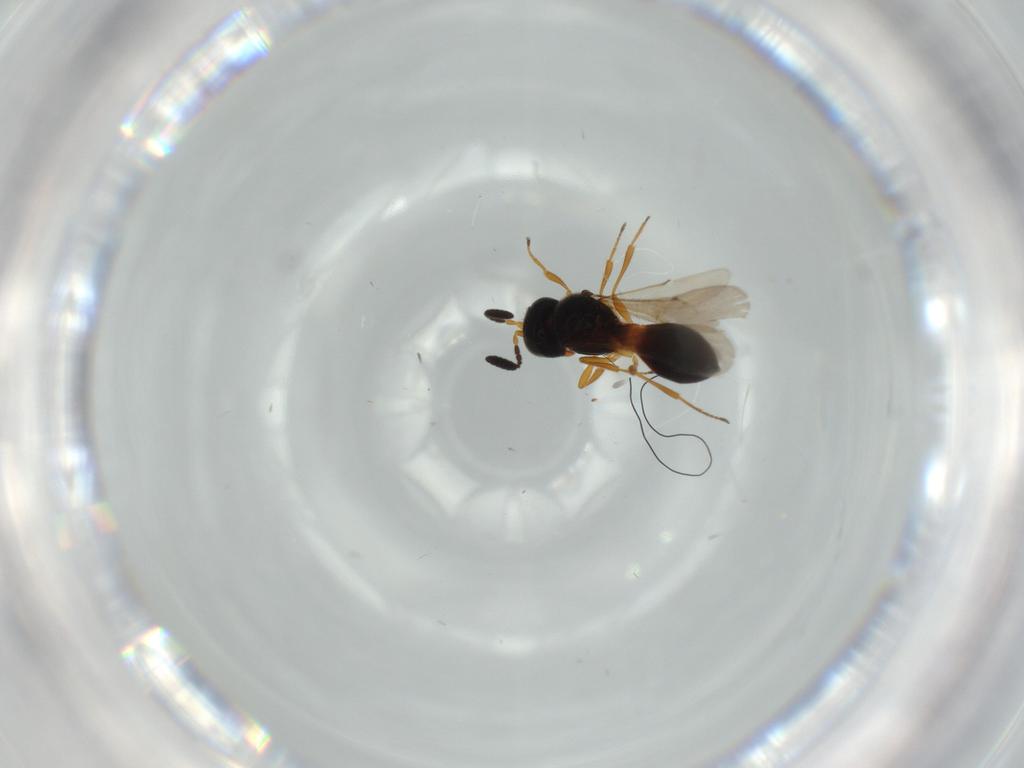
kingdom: Animalia
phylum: Arthropoda
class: Insecta
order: Hymenoptera
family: Scelionidae
